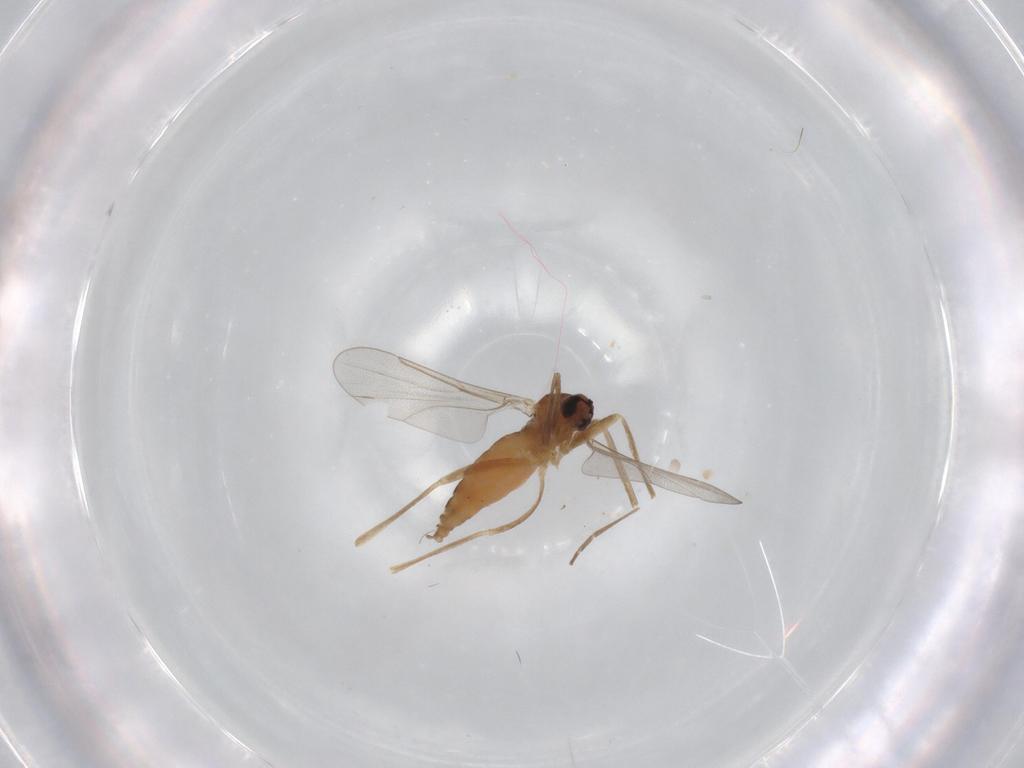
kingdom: Animalia
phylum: Arthropoda
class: Insecta
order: Diptera
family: Cecidomyiidae
